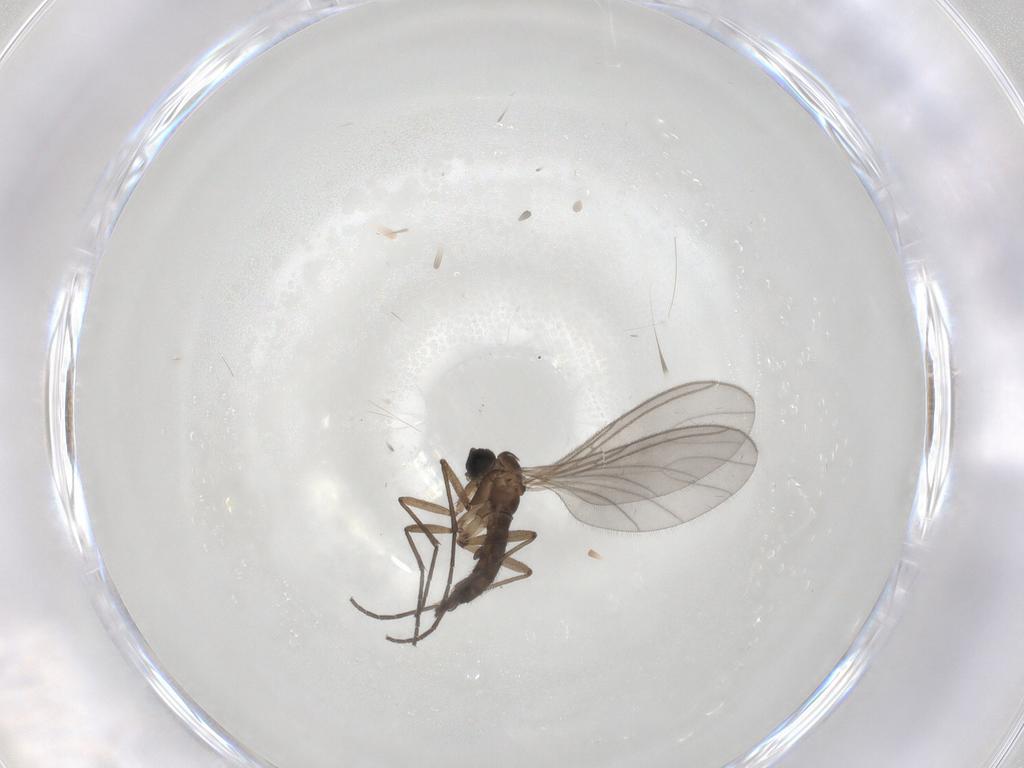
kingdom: Animalia
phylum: Arthropoda
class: Insecta
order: Diptera
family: Sciaridae
